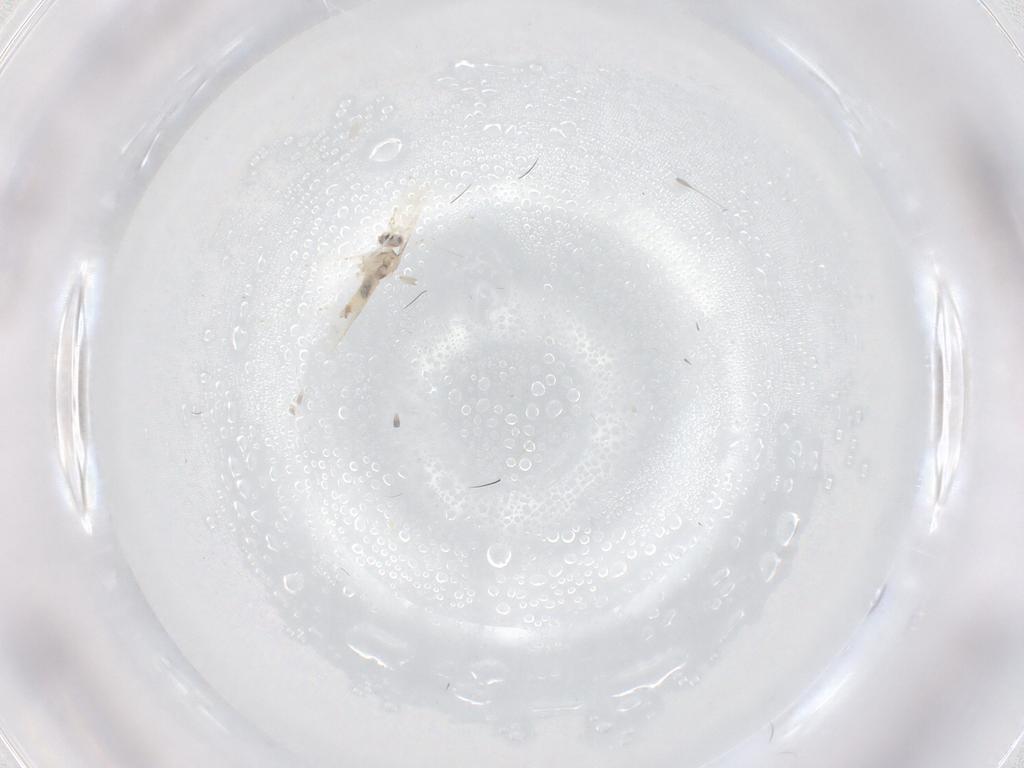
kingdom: Animalia
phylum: Arthropoda
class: Insecta
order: Diptera
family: Cecidomyiidae
